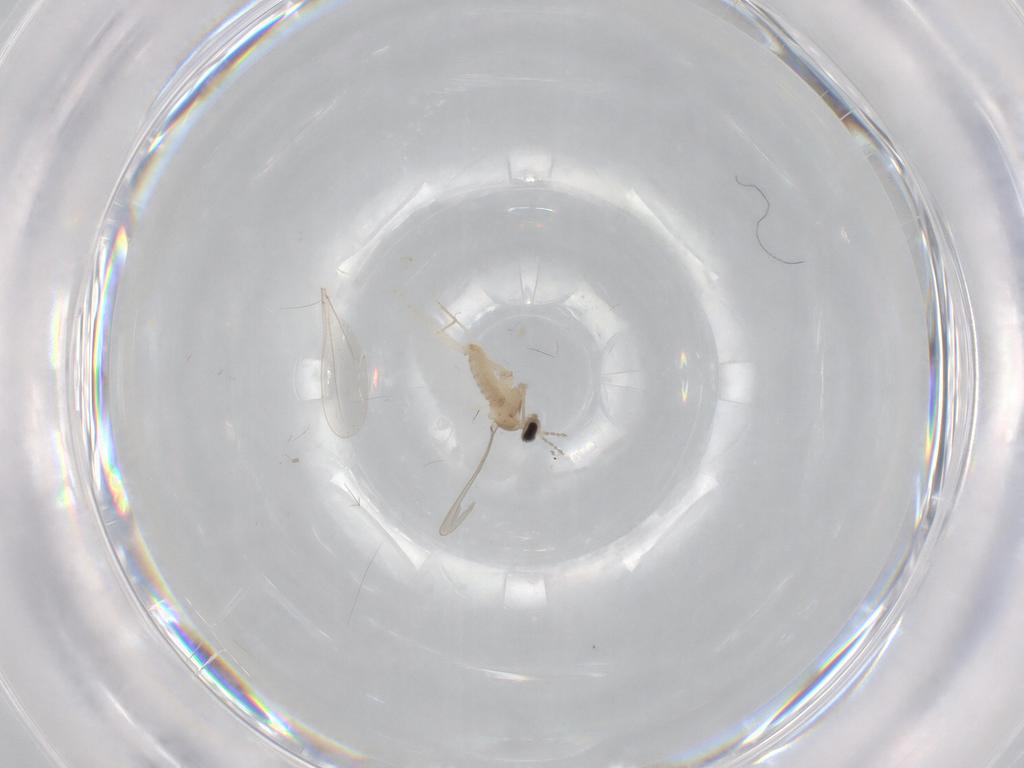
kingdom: Animalia
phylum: Arthropoda
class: Insecta
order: Diptera
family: Cecidomyiidae
